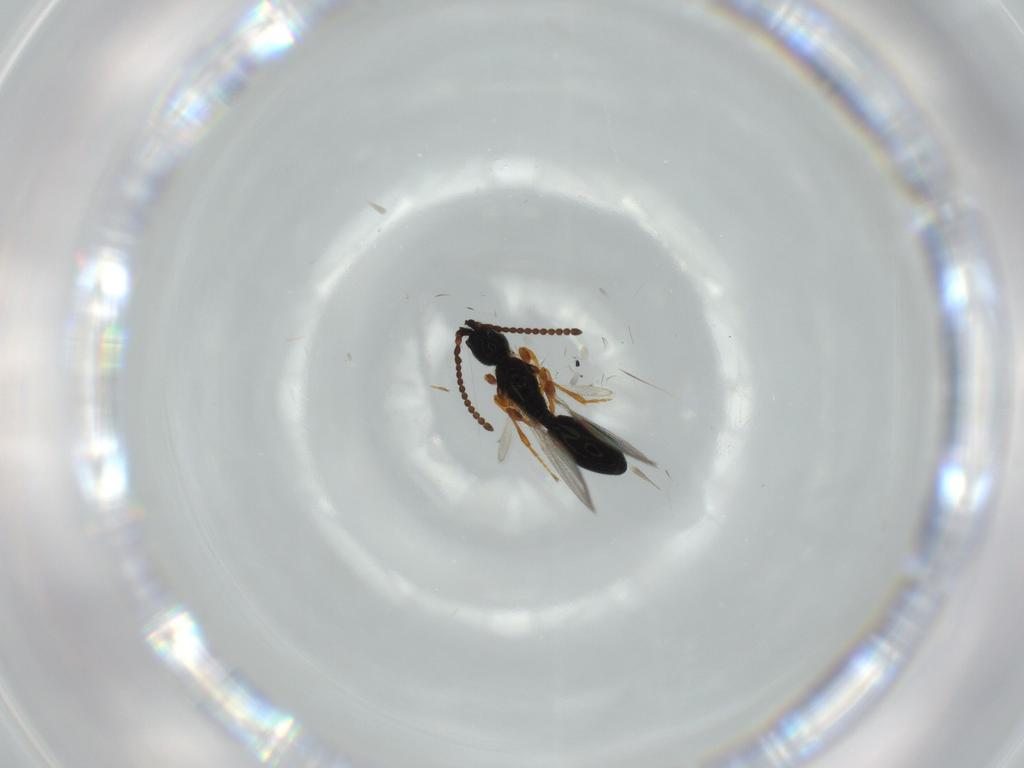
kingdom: Animalia
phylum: Arthropoda
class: Insecta
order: Hymenoptera
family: Diapriidae
